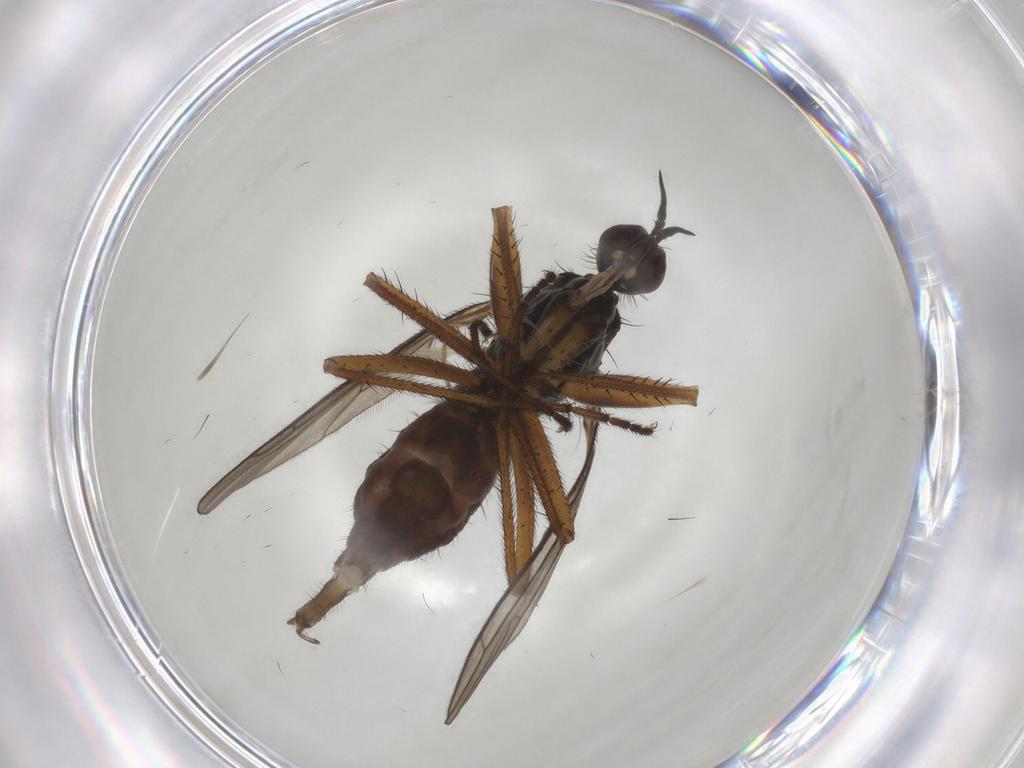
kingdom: Animalia
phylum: Arthropoda
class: Insecta
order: Diptera
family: Empididae
